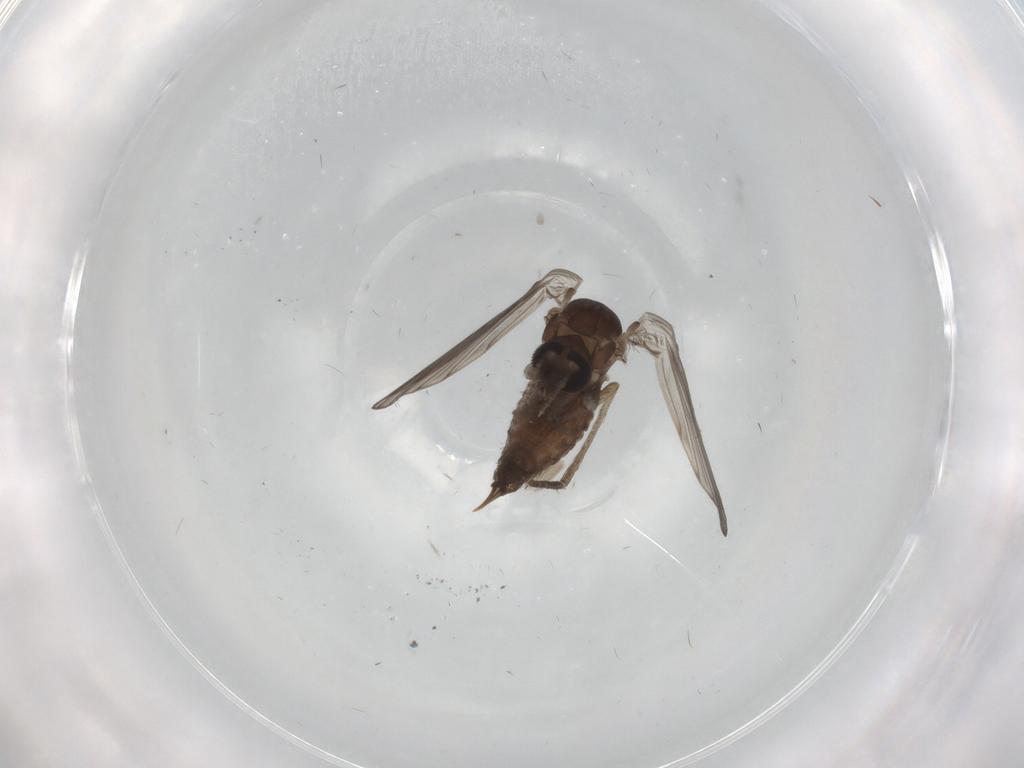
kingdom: Animalia
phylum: Arthropoda
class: Insecta
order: Diptera
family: Psychodidae
